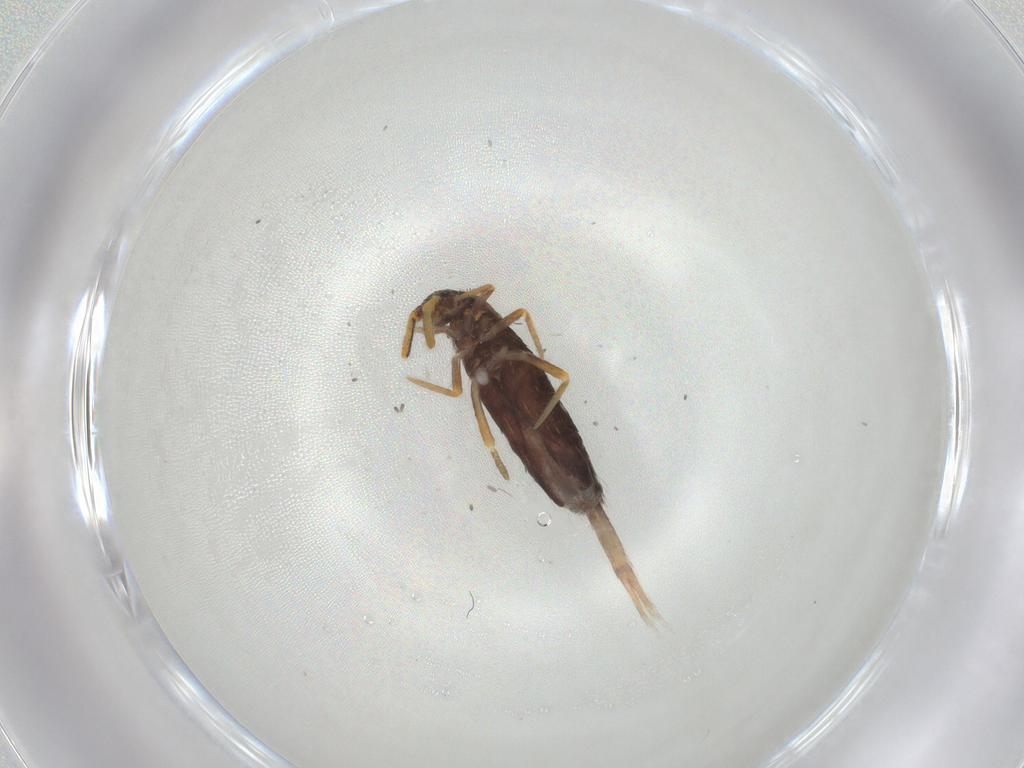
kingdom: Animalia
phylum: Arthropoda
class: Collembola
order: Entomobryomorpha
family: Entomobryidae
